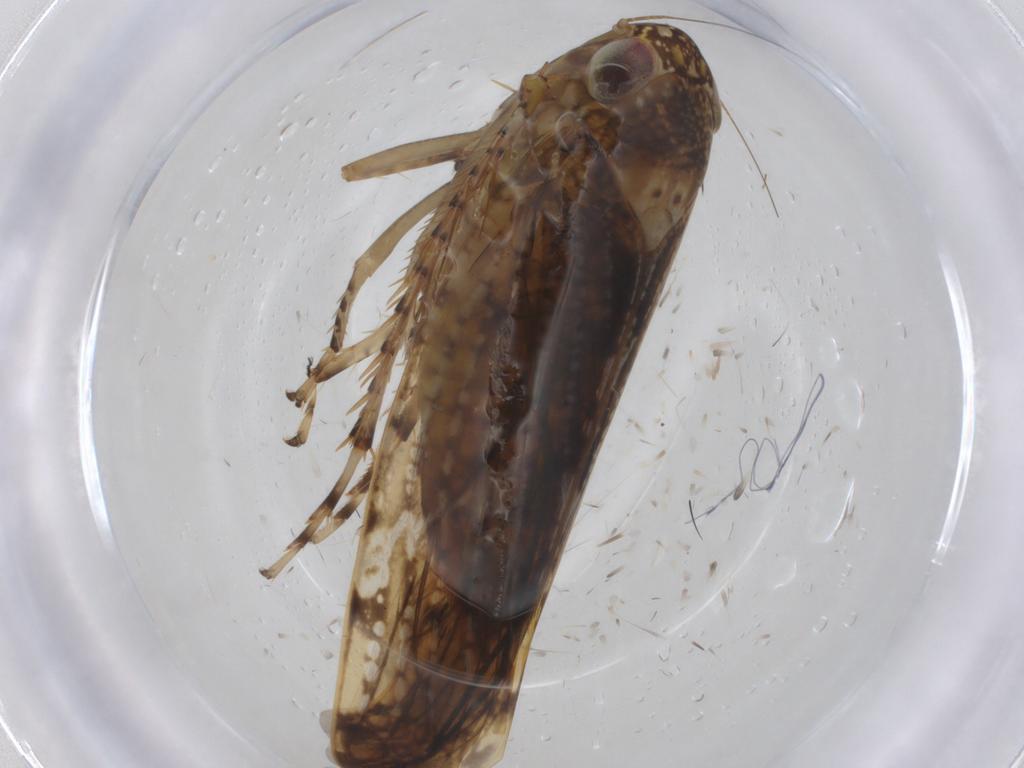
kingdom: Animalia
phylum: Arthropoda
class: Insecta
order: Hemiptera
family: Cicadellidae
